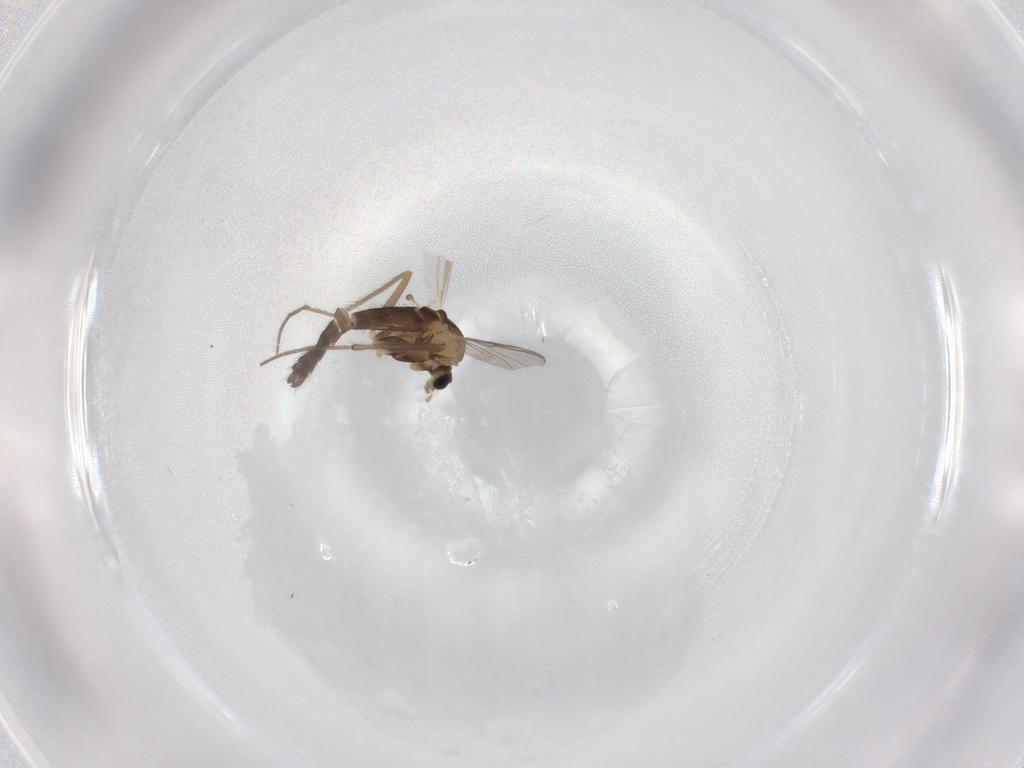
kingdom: Animalia
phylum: Arthropoda
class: Insecta
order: Diptera
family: Chironomidae
